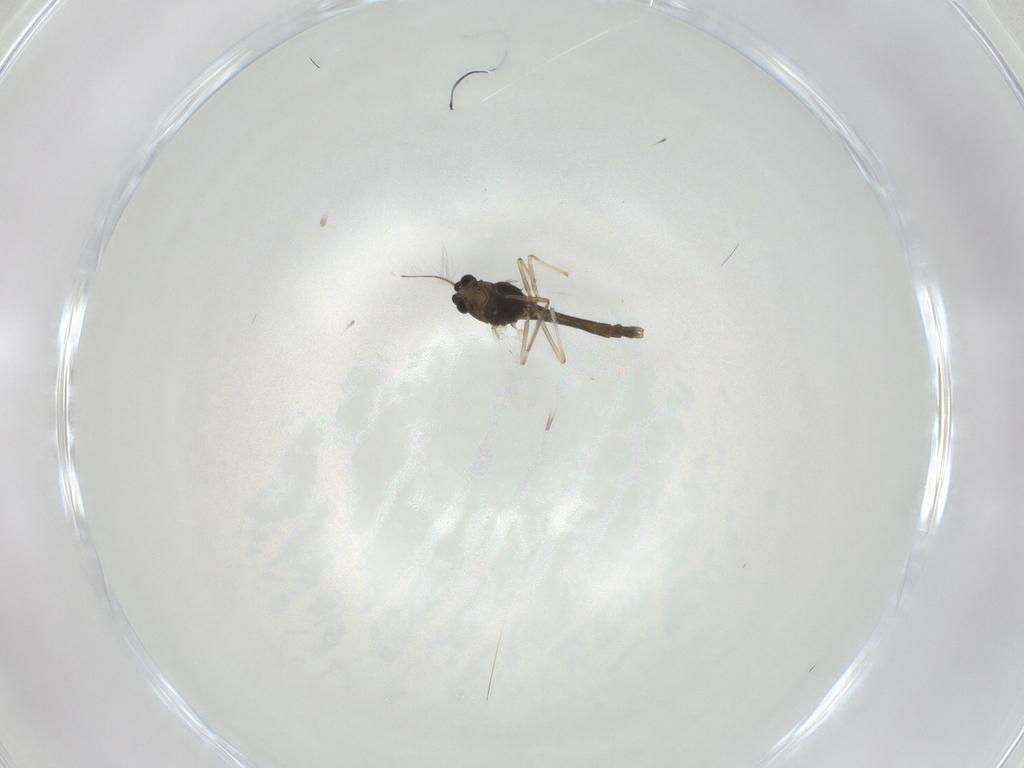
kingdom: Animalia
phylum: Arthropoda
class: Insecta
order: Diptera
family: Chironomidae
